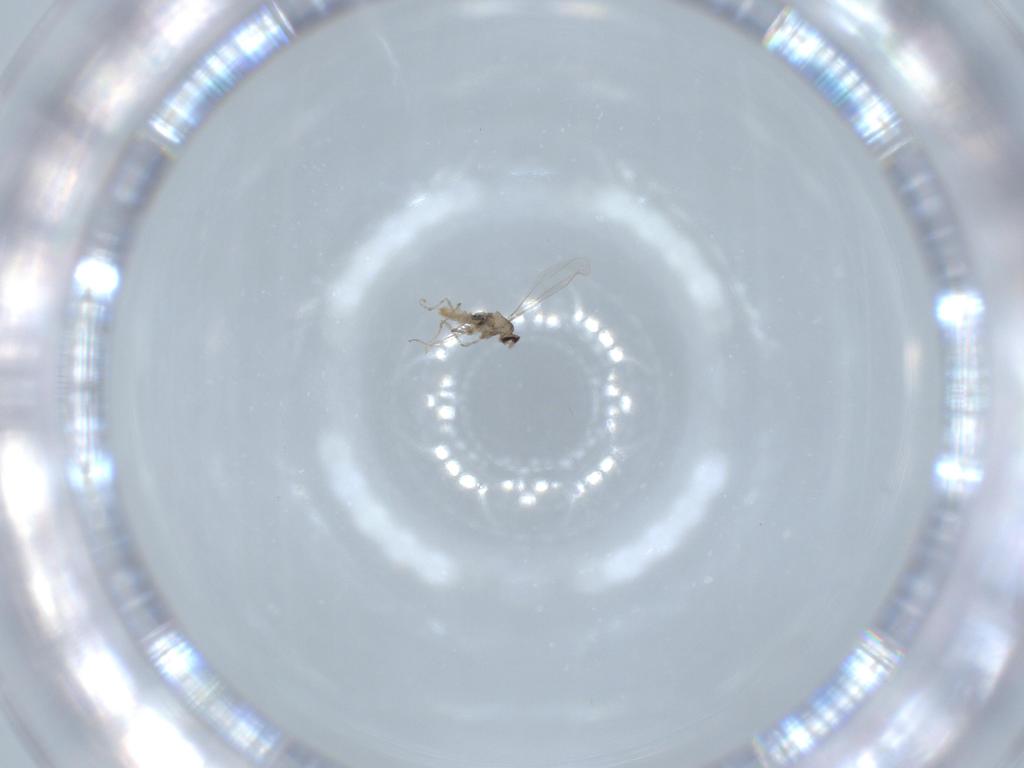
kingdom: Animalia
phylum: Arthropoda
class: Insecta
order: Diptera
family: Cecidomyiidae
